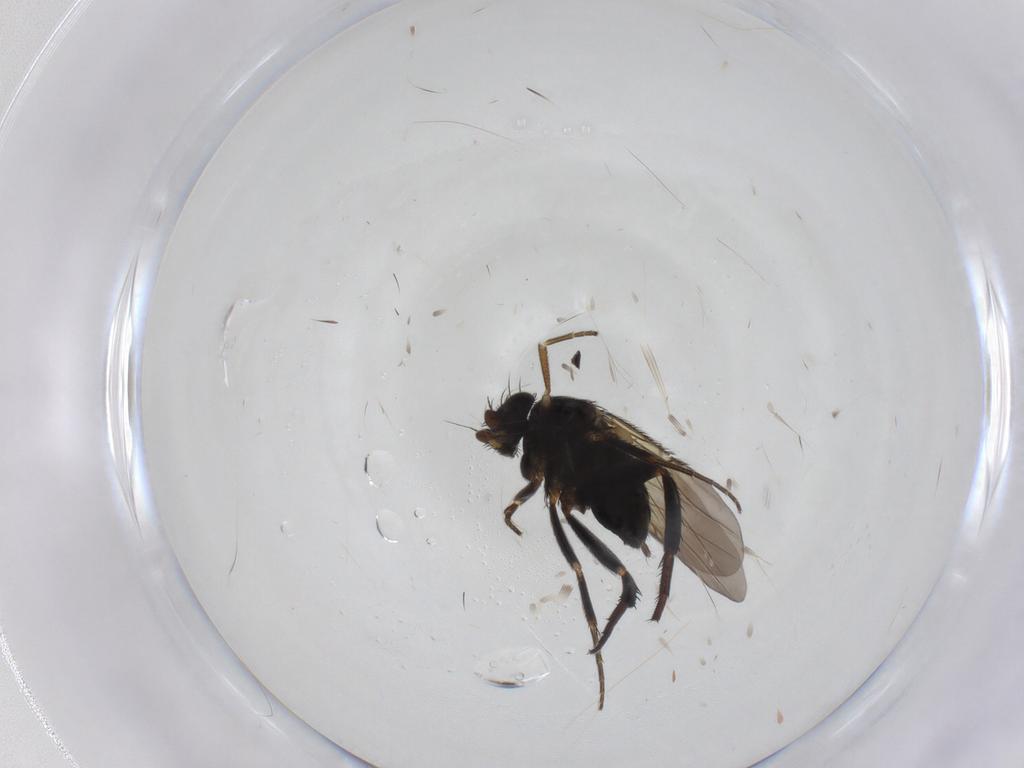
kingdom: Animalia
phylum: Arthropoda
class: Insecta
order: Diptera
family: Phoridae
